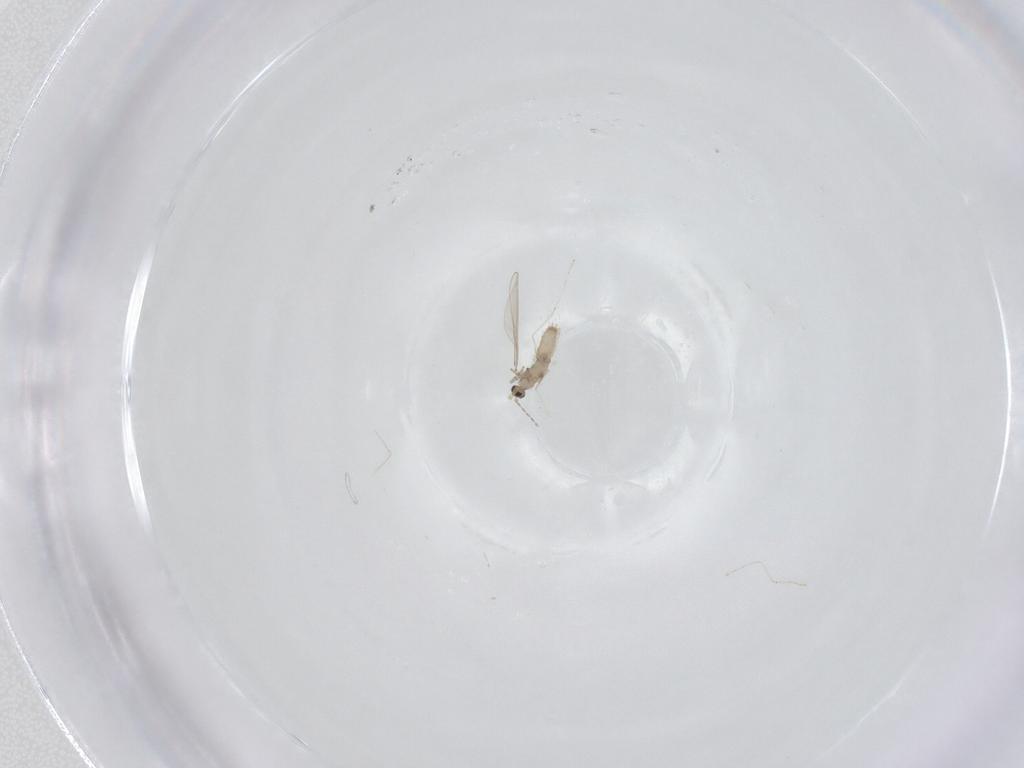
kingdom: Animalia
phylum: Arthropoda
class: Insecta
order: Diptera
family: Cecidomyiidae
